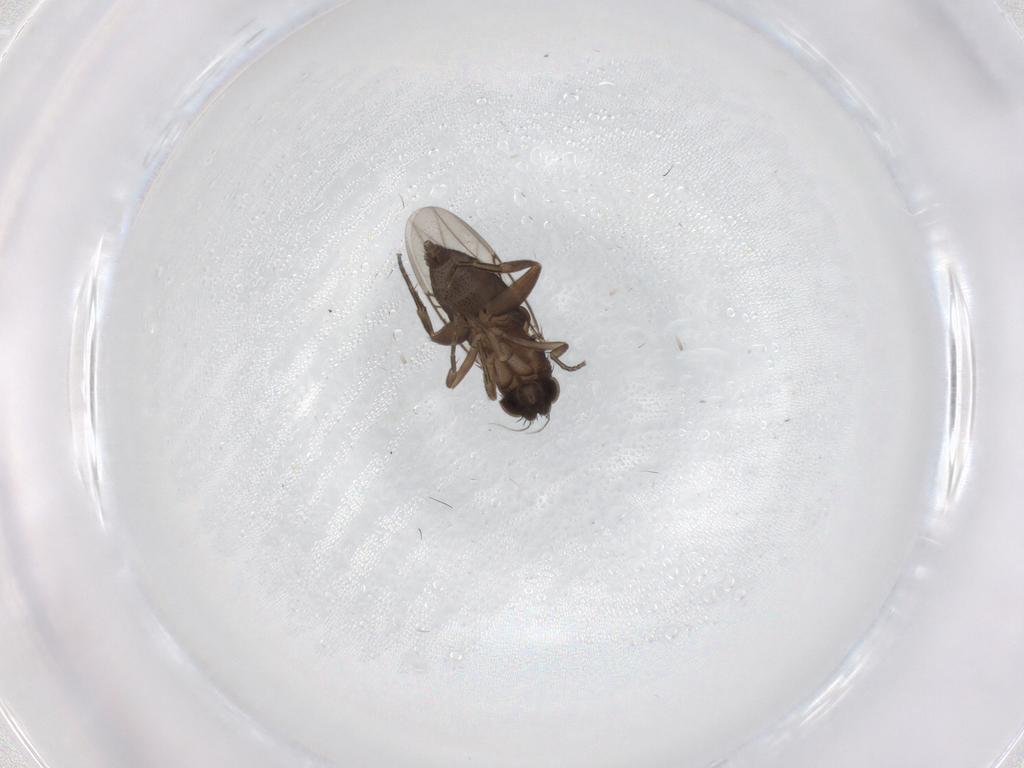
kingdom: Animalia
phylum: Arthropoda
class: Insecta
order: Diptera
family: Phoridae
